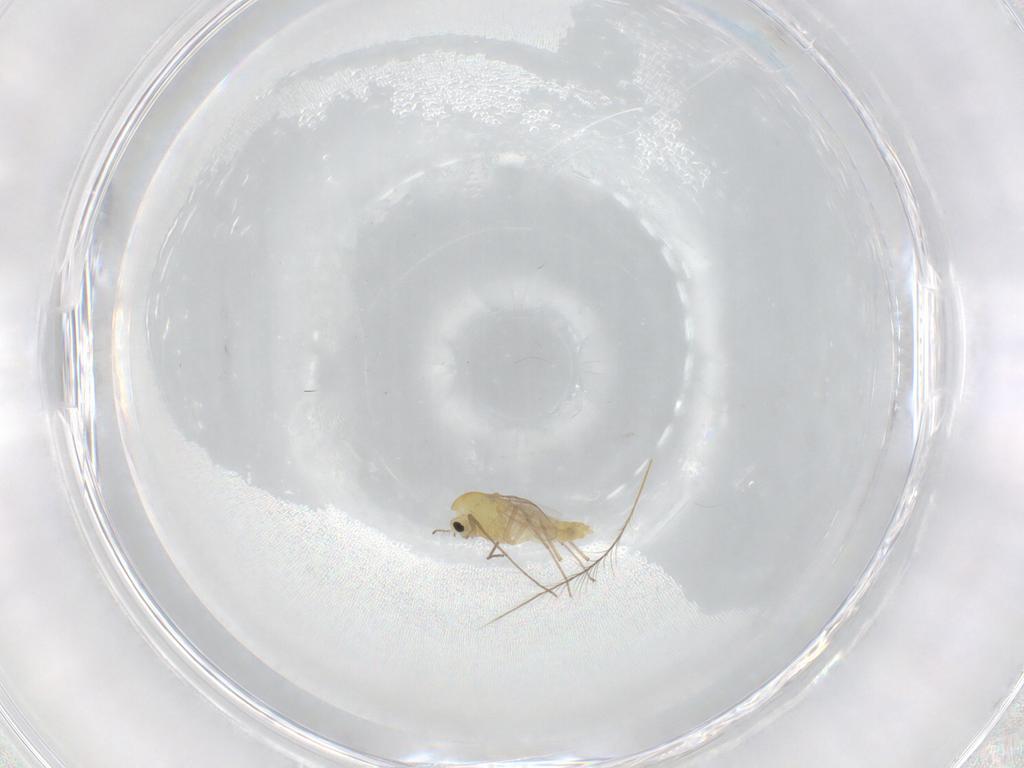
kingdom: Animalia
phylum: Arthropoda
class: Insecta
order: Diptera
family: Chironomidae
